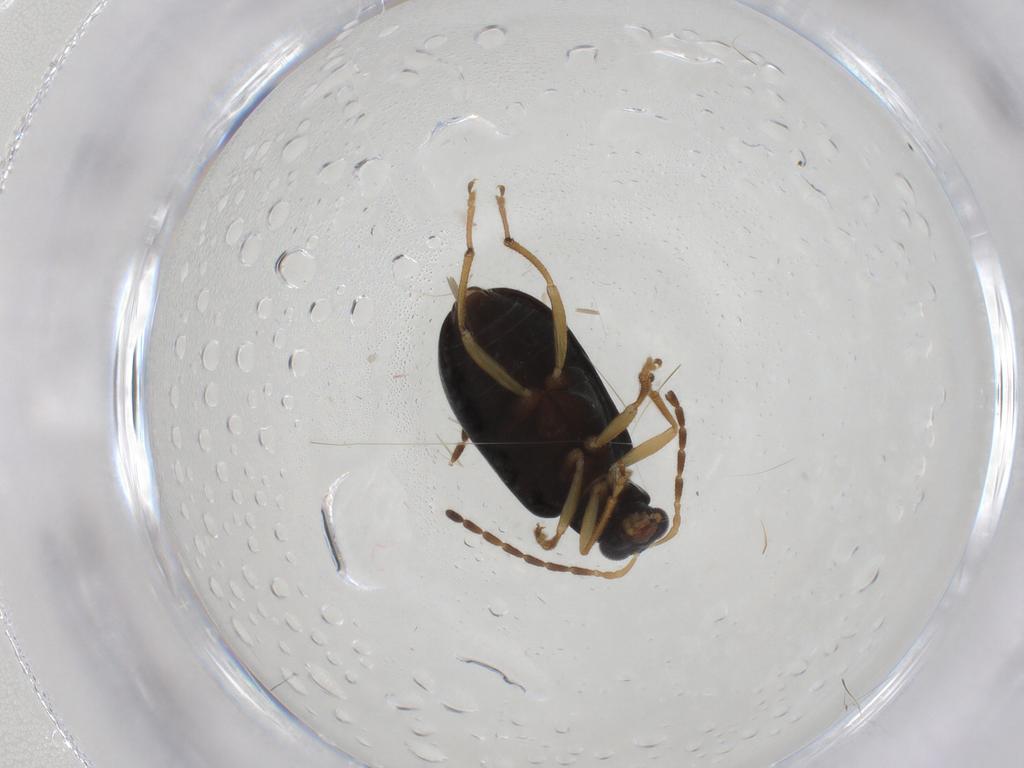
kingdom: Animalia
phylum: Arthropoda
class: Insecta
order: Coleoptera
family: Chrysomelidae
